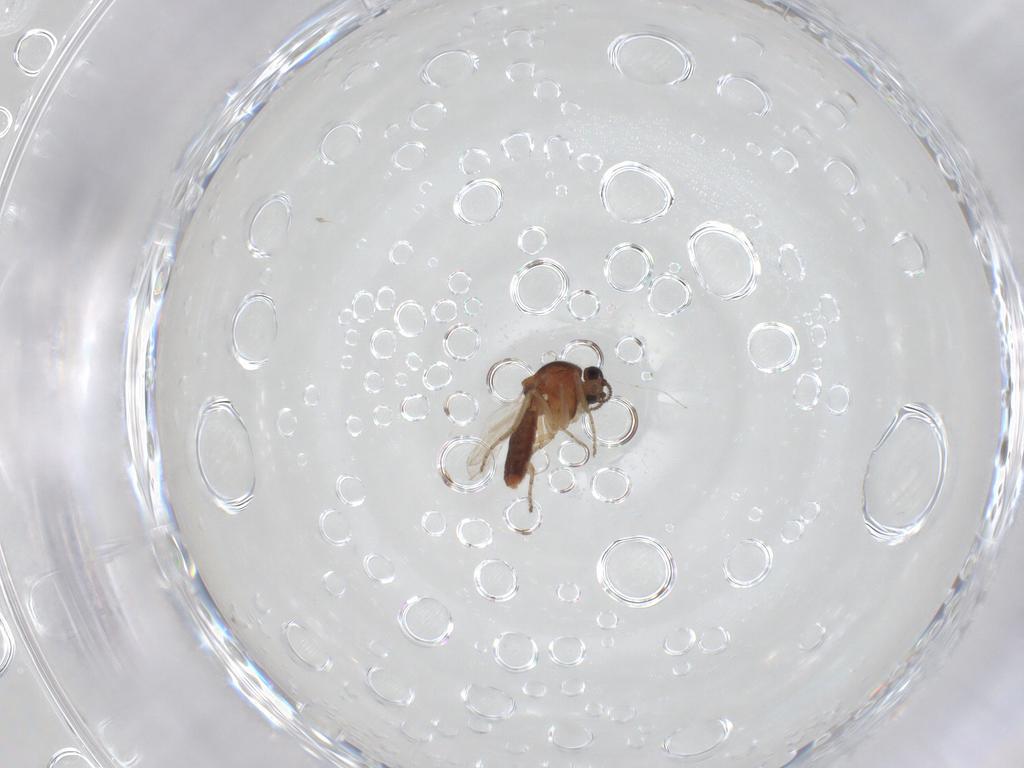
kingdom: Animalia
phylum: Arthropoda
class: Insecta
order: Diptera
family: Ceratopogonidae
